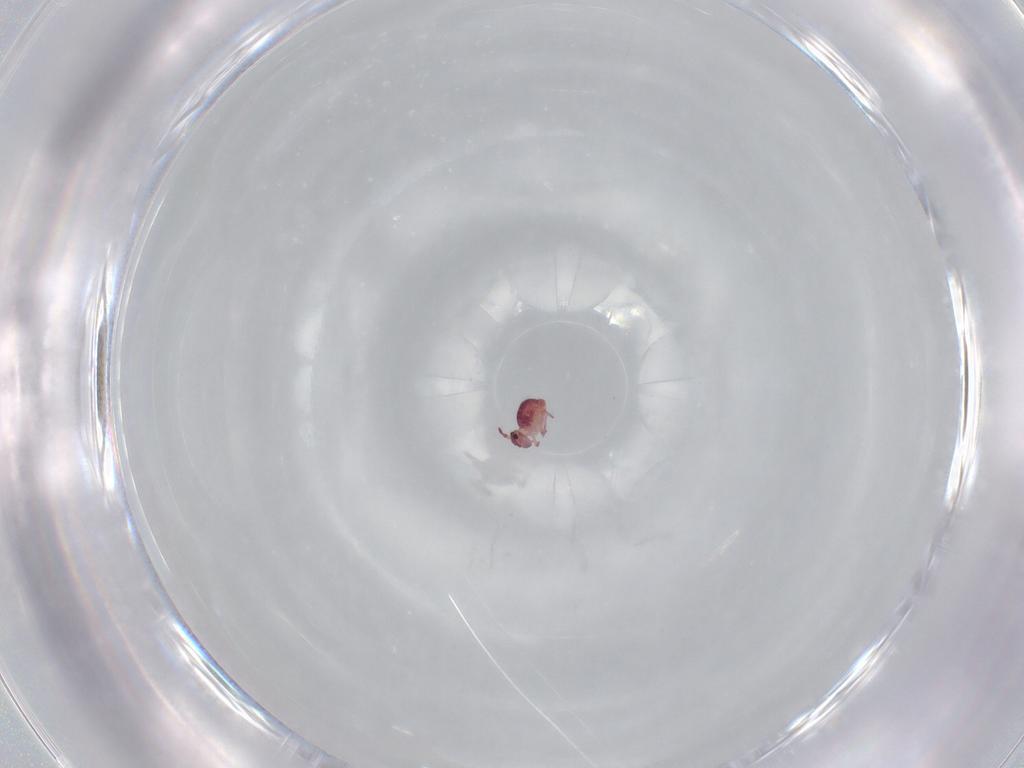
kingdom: Animalia
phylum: Arthropoda
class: Collembola
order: Symphypleona
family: Sminthurididae
